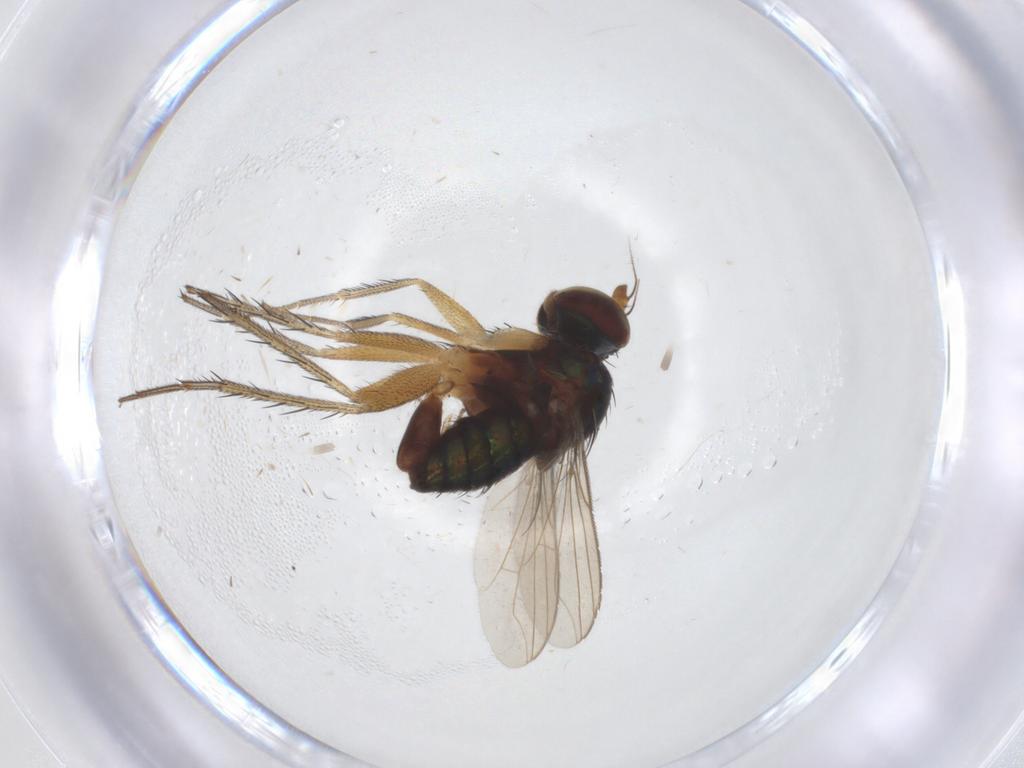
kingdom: Animalia
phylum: Arthropoda
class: Insecta
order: Diptera
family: Dolichopodidae
